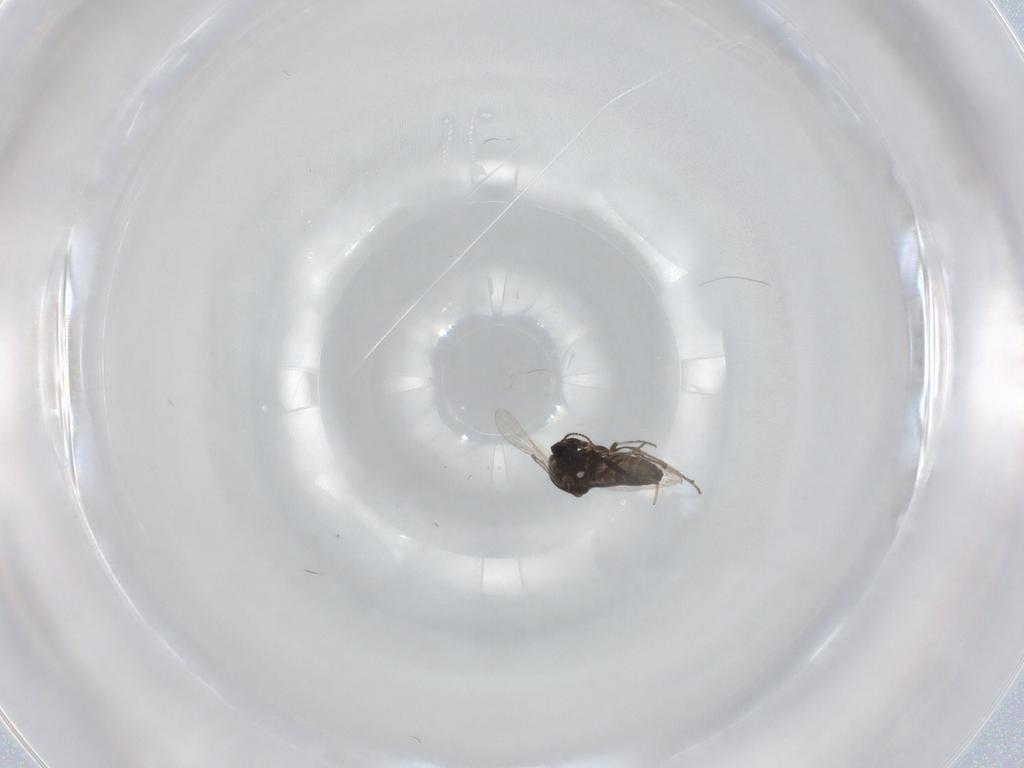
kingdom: Animalia
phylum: Arthropoda
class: Insecta
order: Diptera
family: Ceratopogonidae
